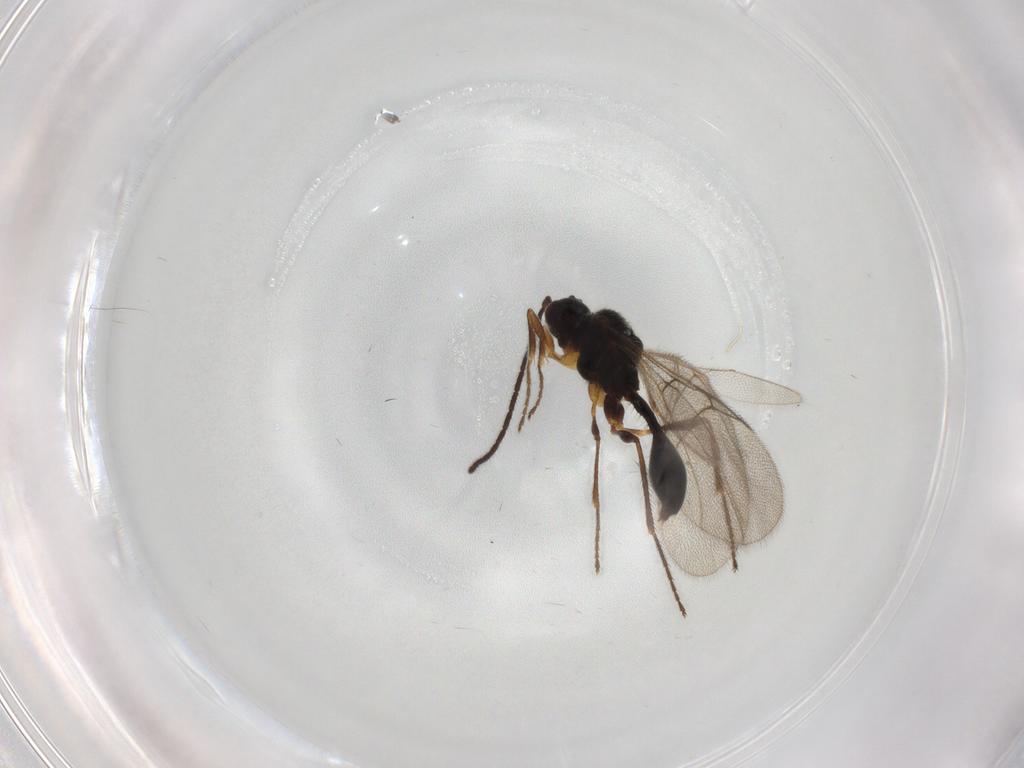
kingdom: Animalia
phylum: Arthropoda
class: Insecta
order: Hymenoptera
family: Diapriidae
